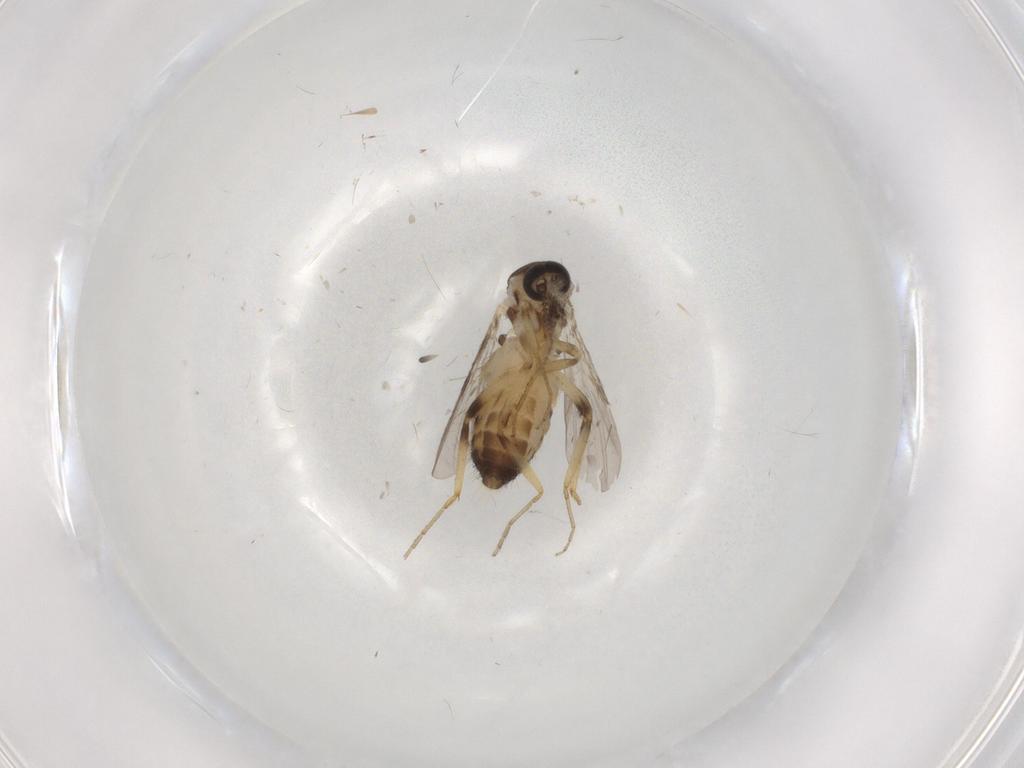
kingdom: Animalia
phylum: Arthropoda
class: Insecta
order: Diptera
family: Ceratopogonidae
